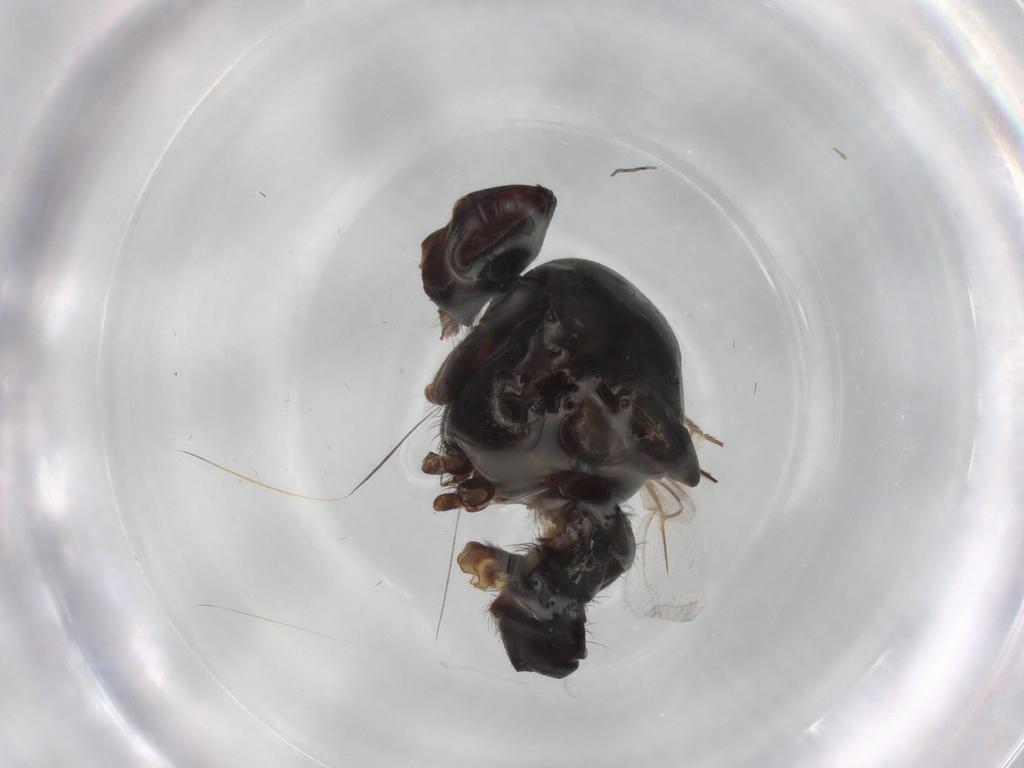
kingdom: Animalia
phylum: Arthropoda
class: Insecta
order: Diptera
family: Anthomyiidae
